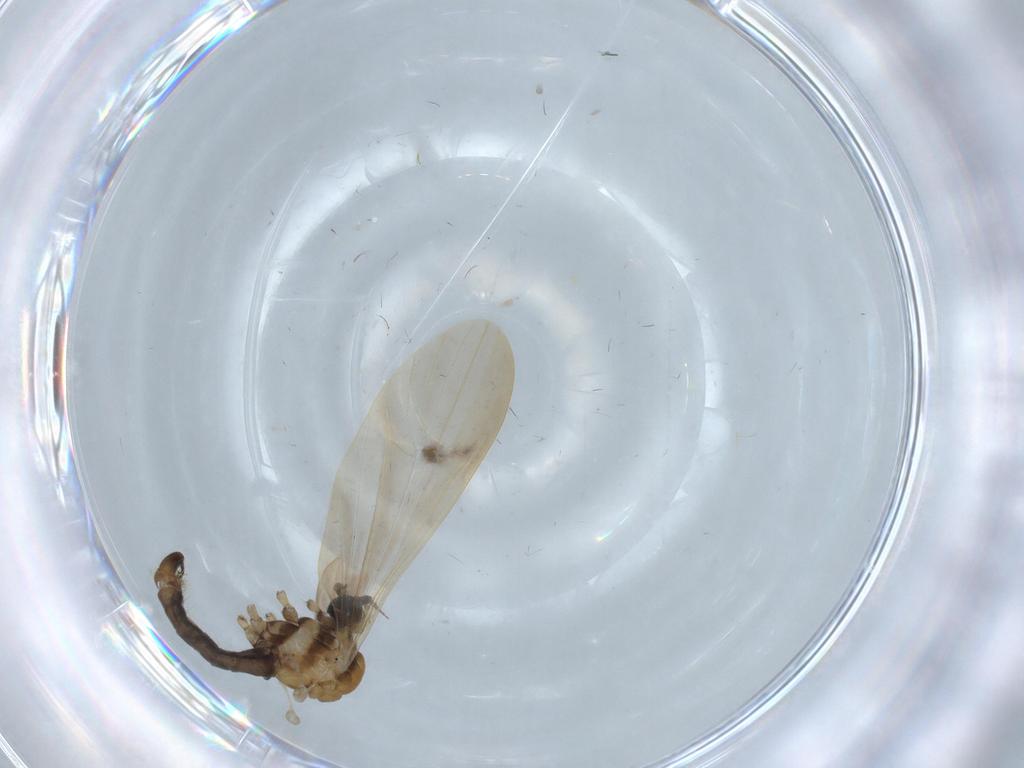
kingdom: Animalia
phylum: Arthropoda
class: Insecta
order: Diptera
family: Limoniidae
